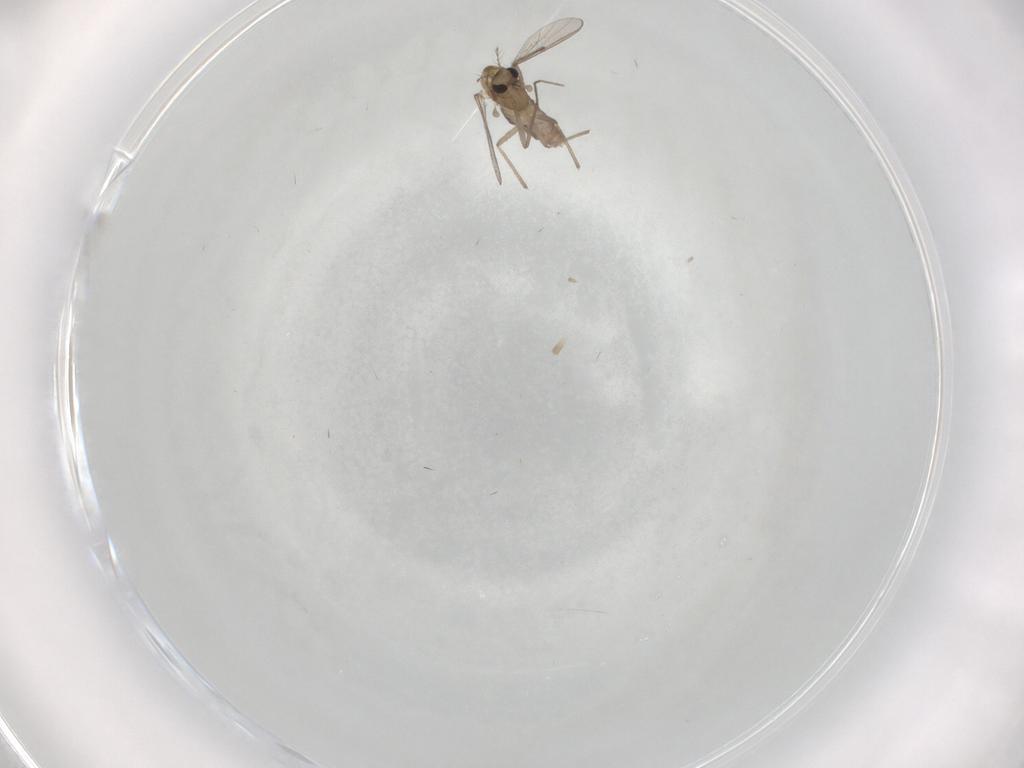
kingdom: Animalia
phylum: Arthropoda
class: Insecta
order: Diptera
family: Chironomidae
